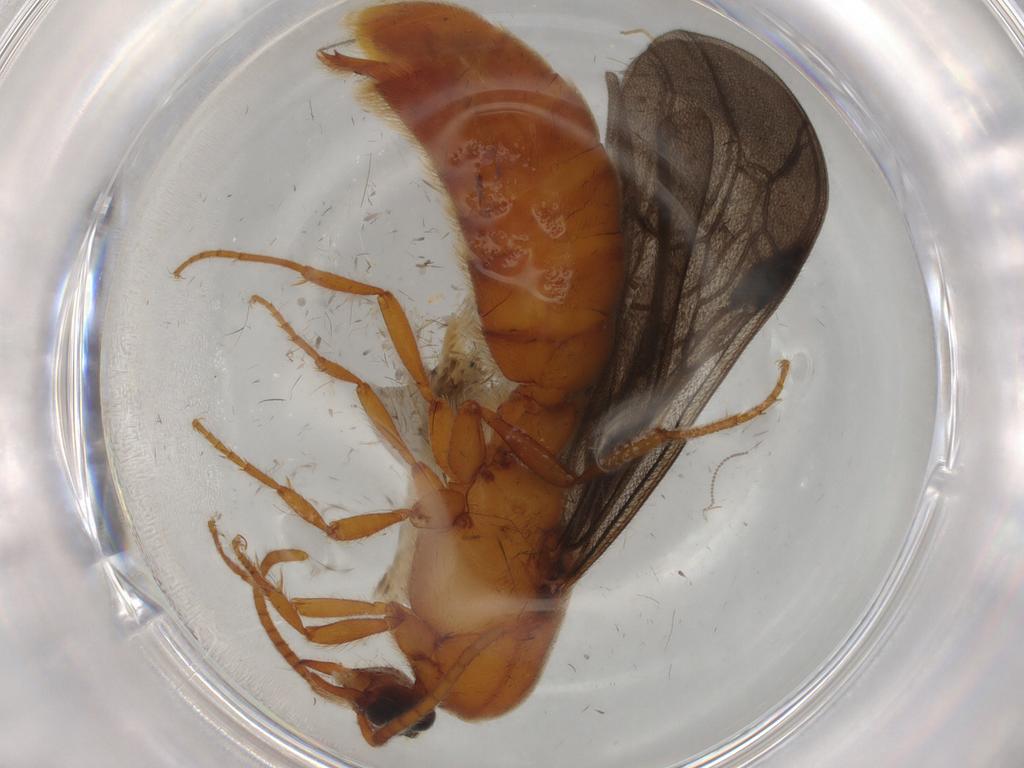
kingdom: Animalia
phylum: Arthropoda
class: Insecta
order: Hymenoptera
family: Formicidae
